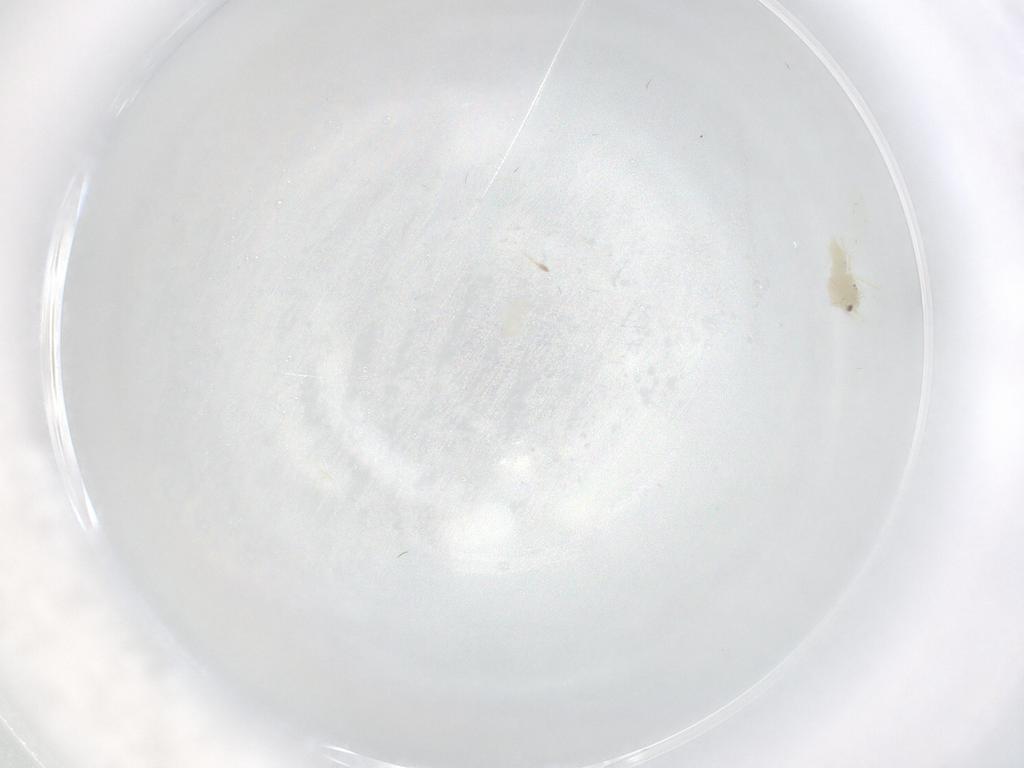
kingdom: Animalia
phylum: Arthropoda
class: Insecta
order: Hemiptera
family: Aleyrodidae
